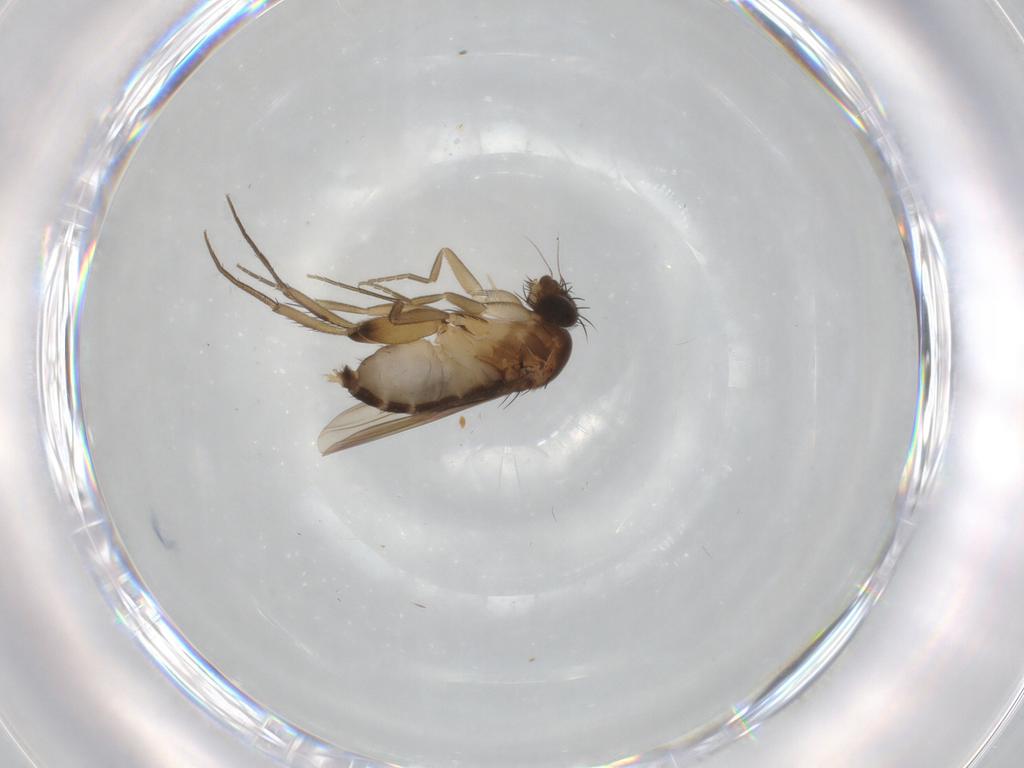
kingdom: Animalia
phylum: Arthropoda
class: Insecta
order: Diptera
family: Phoridae
